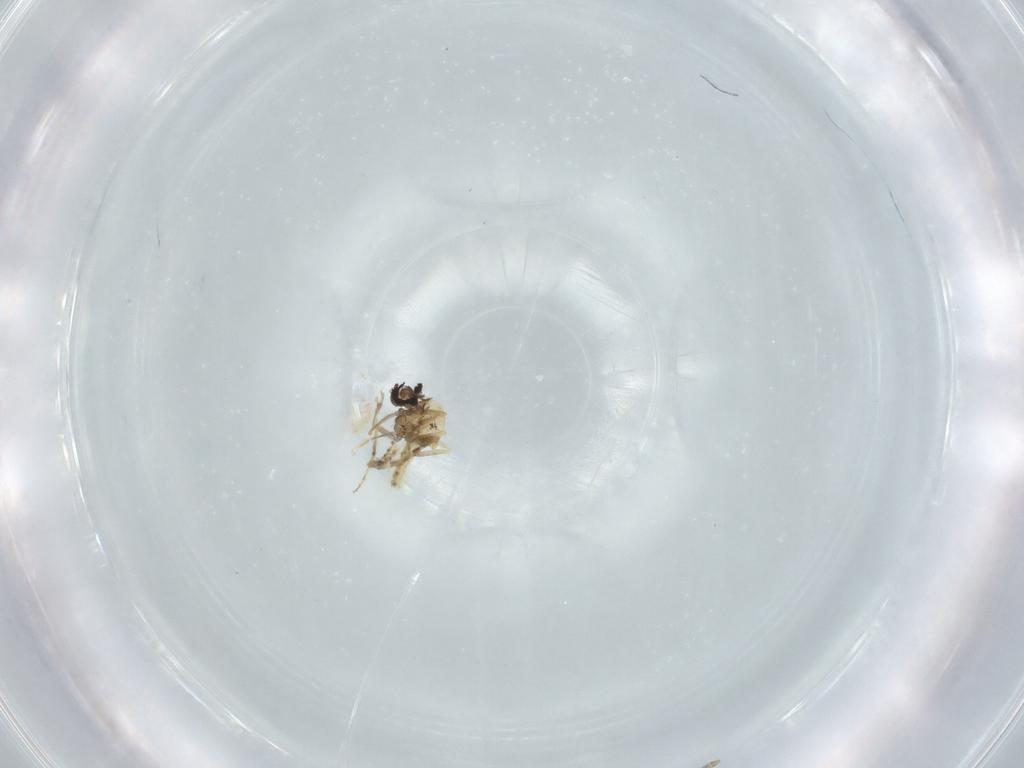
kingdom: Animalia
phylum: Arthropoda
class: Insecta
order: Diptera
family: Ceratopogonidae
